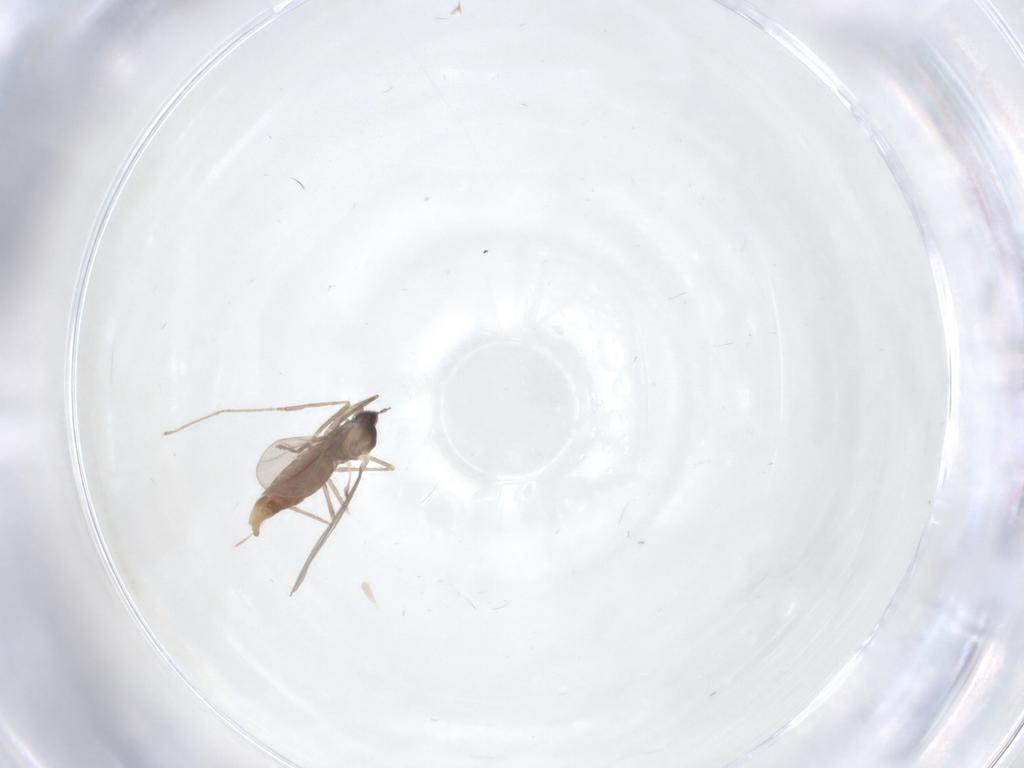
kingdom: Animalia
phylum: Arthropoda
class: Insecta
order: Diptera
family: Cecidomyiidae
